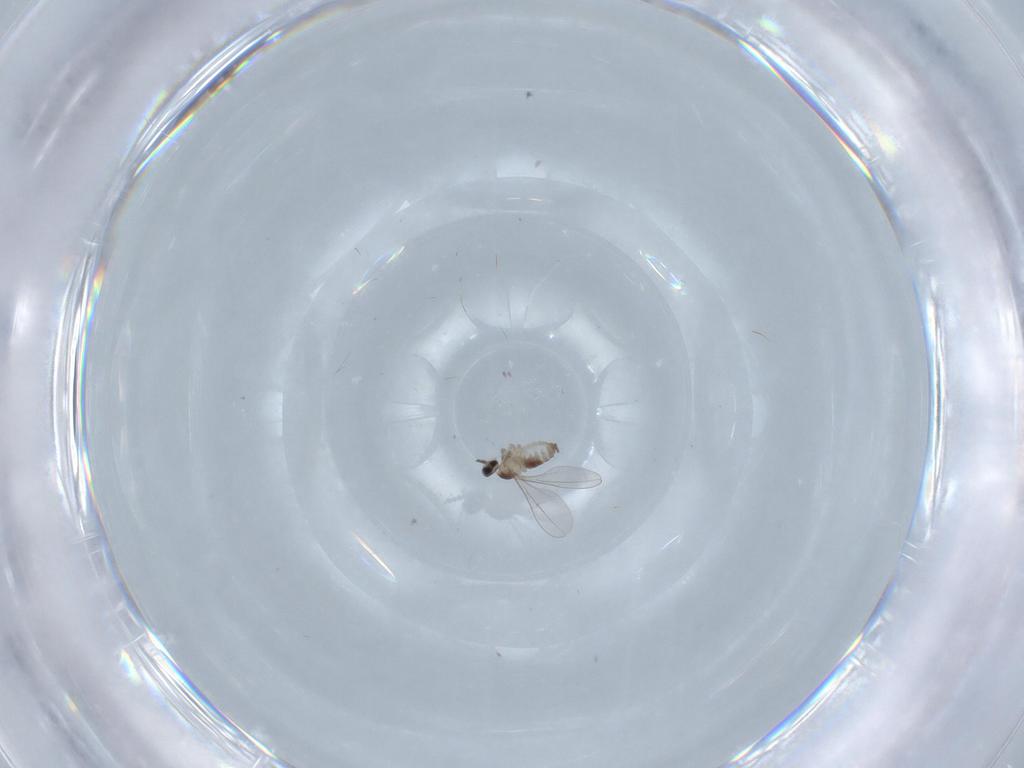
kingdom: Animalia
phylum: Arthropoda
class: Insecta
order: Diptera
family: Cecidomyiidae
